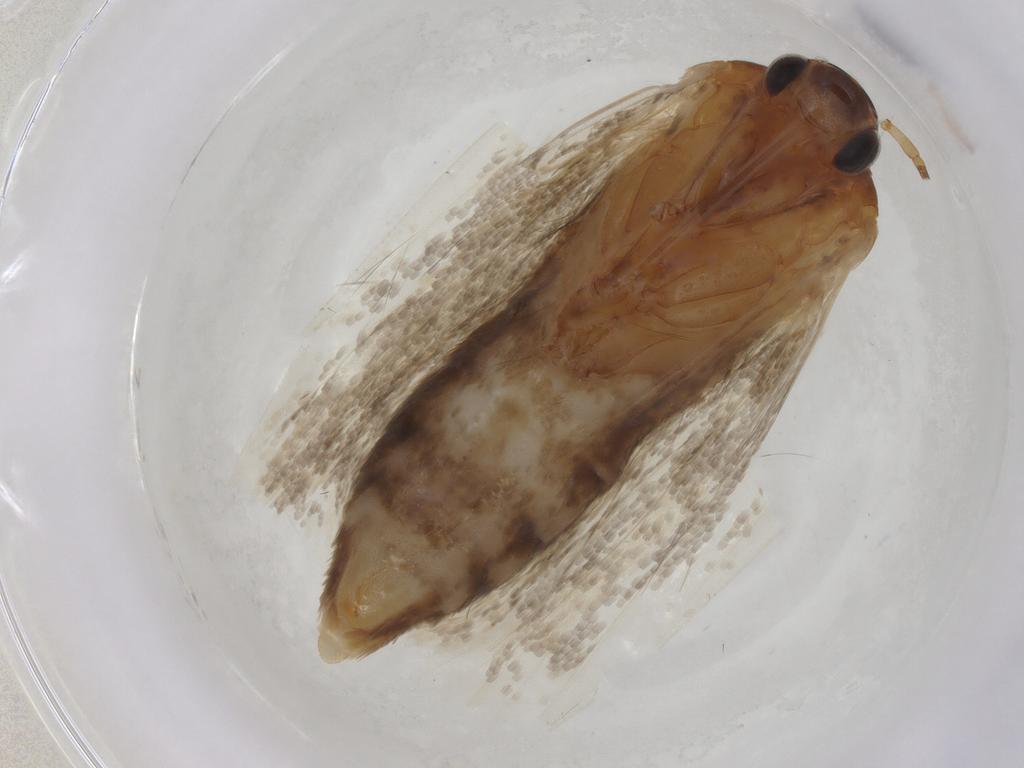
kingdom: Animalia
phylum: Arthropoda
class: Insecta
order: Lepidoptera
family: Oecophoridae
